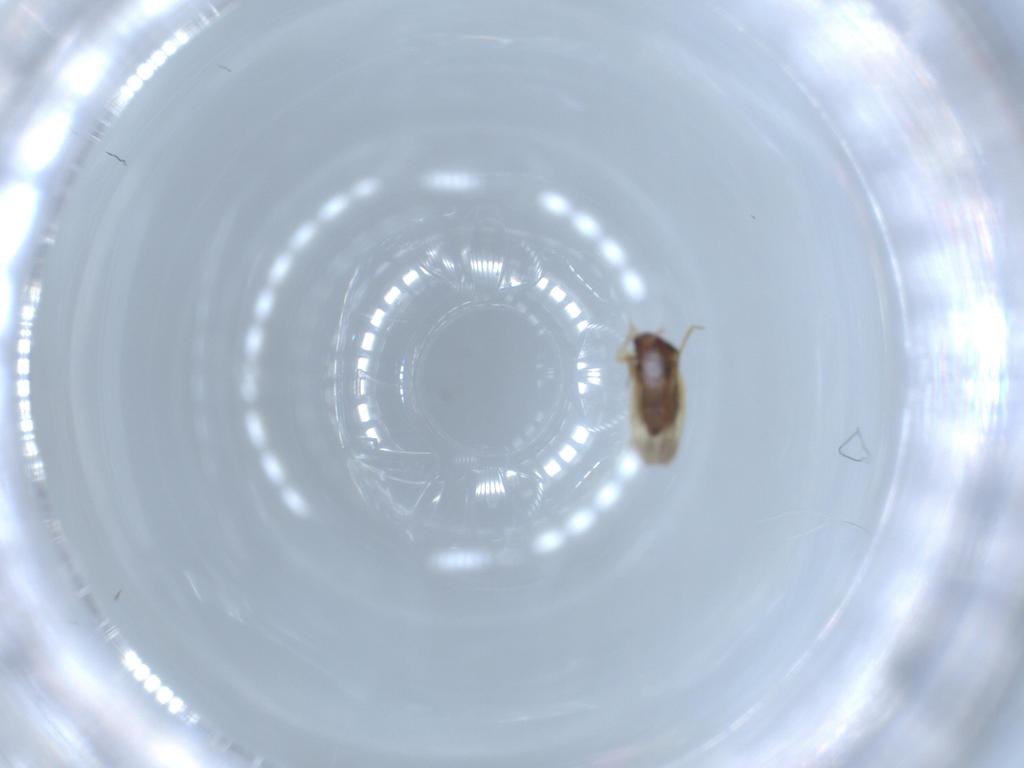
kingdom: Animalia
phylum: Arthropoda
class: Insecta
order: Hemiptera
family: Schizopteridae
